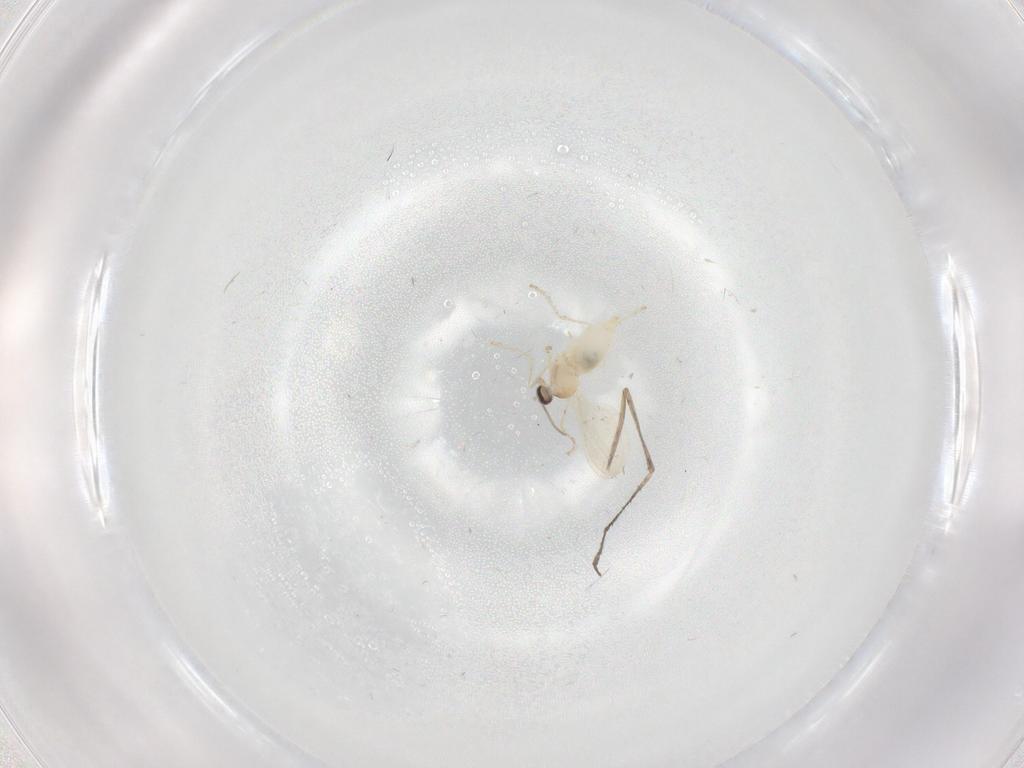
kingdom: Animalia
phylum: Arthropoda
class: Insecta
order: Diptera
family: Cecidomyiidae
